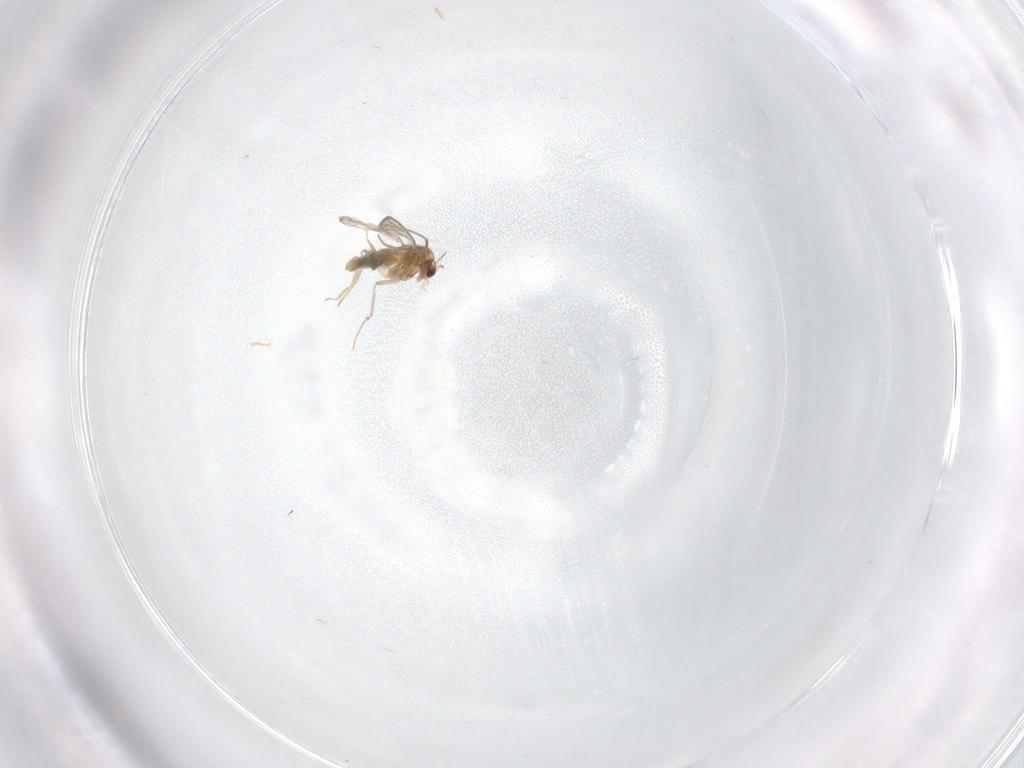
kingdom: Animalia
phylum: Arthropoda
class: Insecta
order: Diptera
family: Chironomidae
